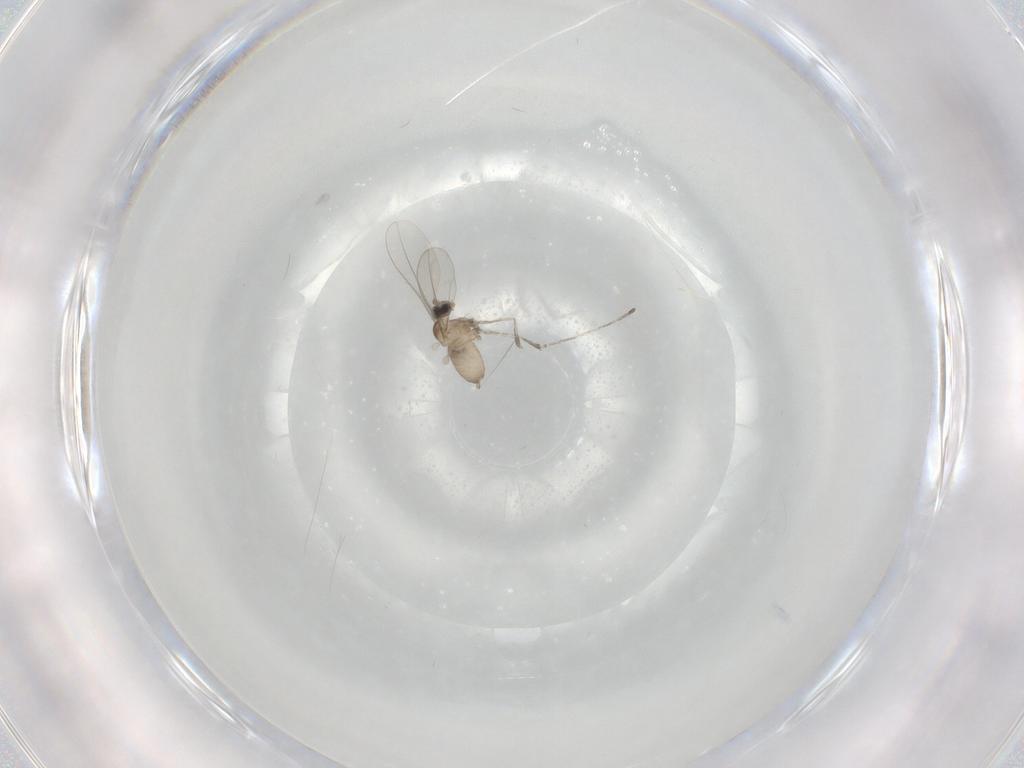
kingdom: Animalia
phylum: Arthropoda
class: Insecta
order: Diptera
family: Cecidomyiidae
